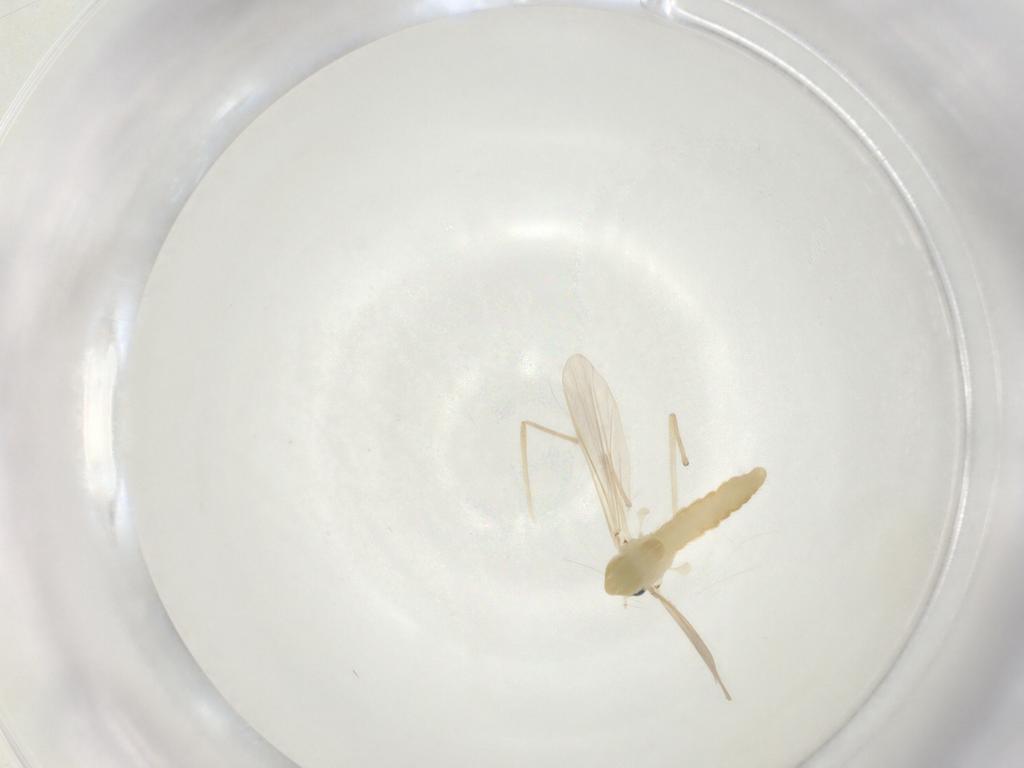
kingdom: Animalia
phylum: Arthropoda
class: Insecta
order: Diptera
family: Chironomidae
